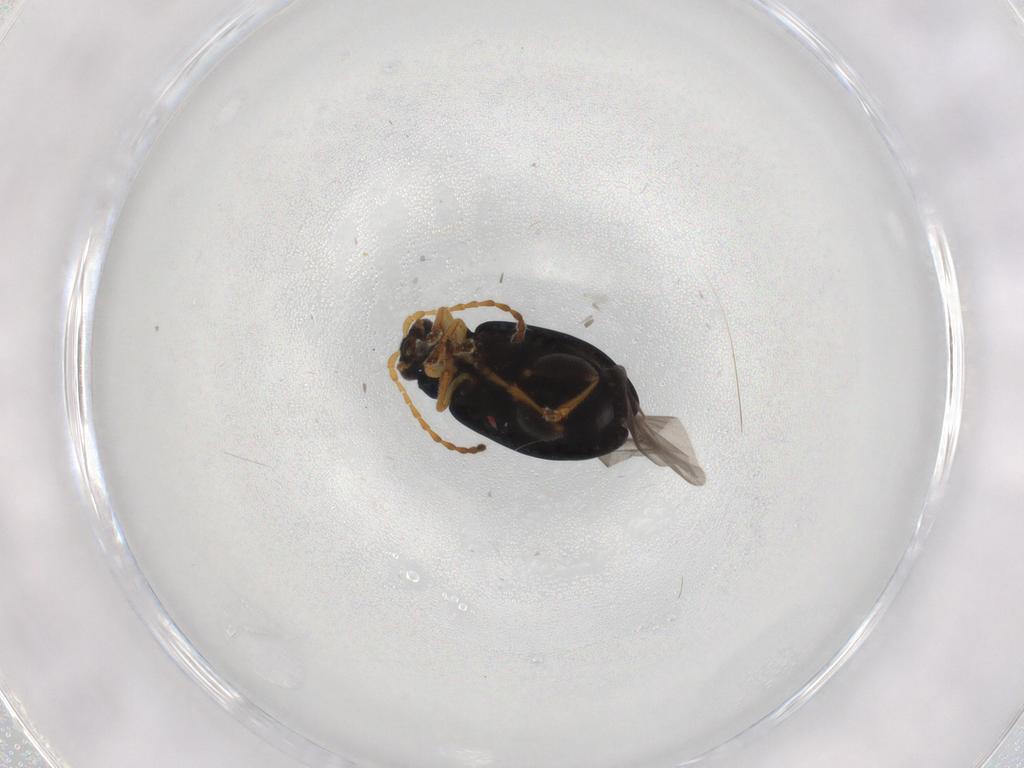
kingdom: Animalia
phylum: Arthropoda
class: Insecta
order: Coleoptera
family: Chrysomelidae
